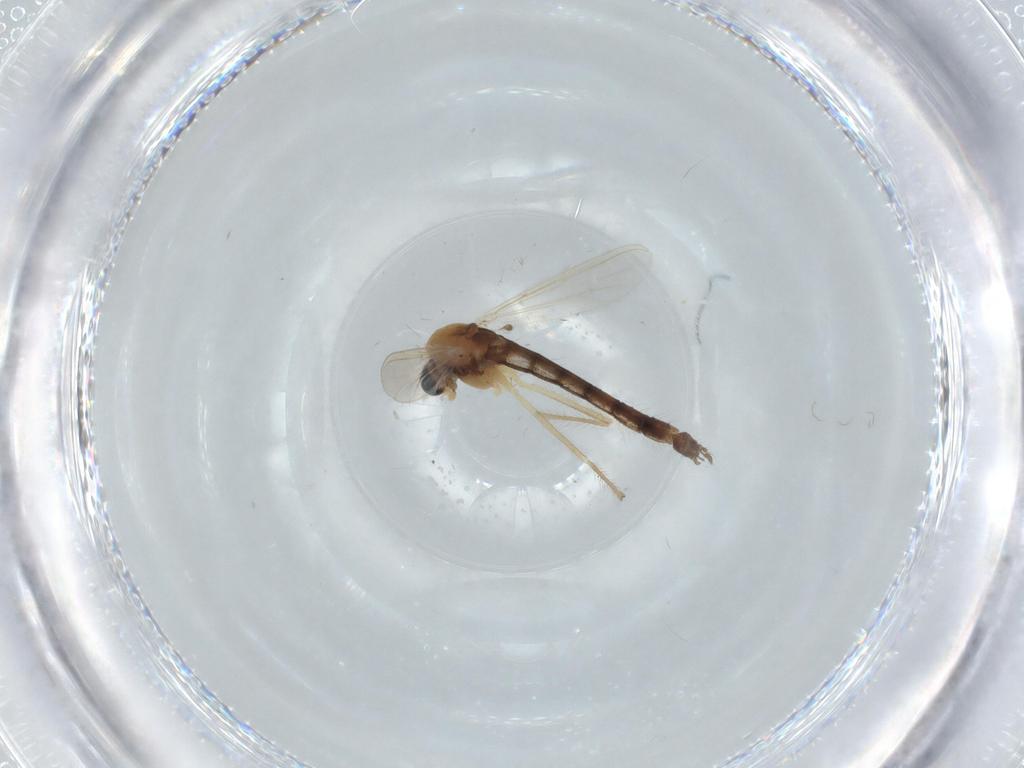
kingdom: Animalia
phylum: Arthropoda
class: Insecta
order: Diptera
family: Chironomidae
